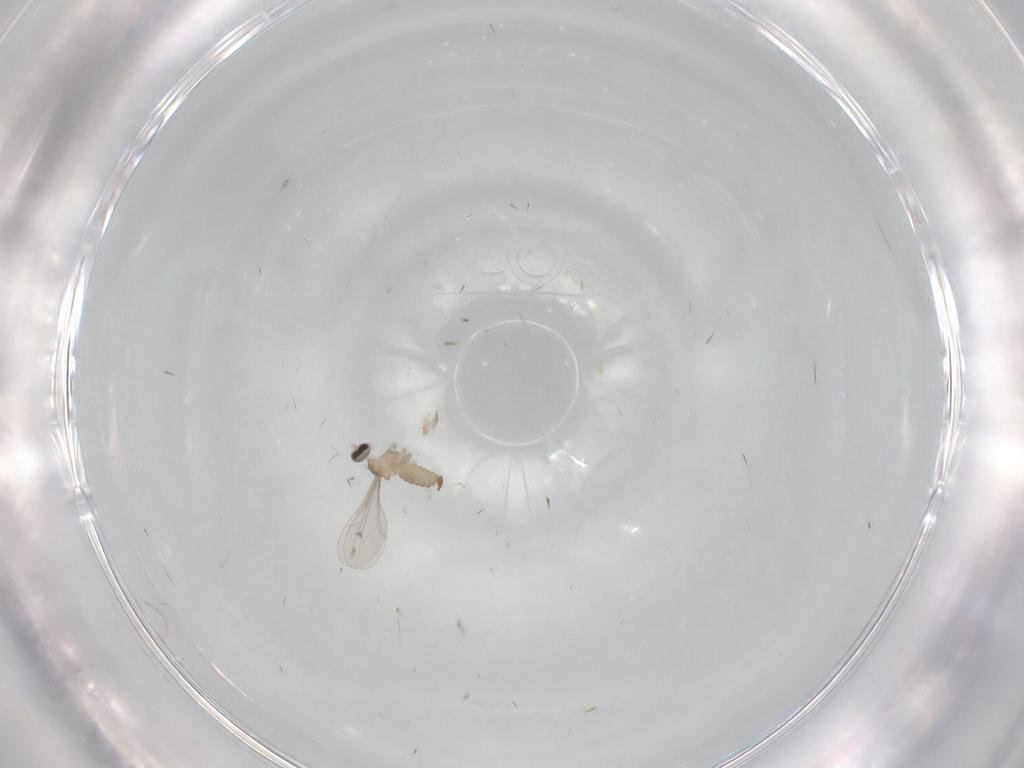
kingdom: Animalia
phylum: Arthropoda
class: Insecta
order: Diptera
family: Cecidomyiidae
